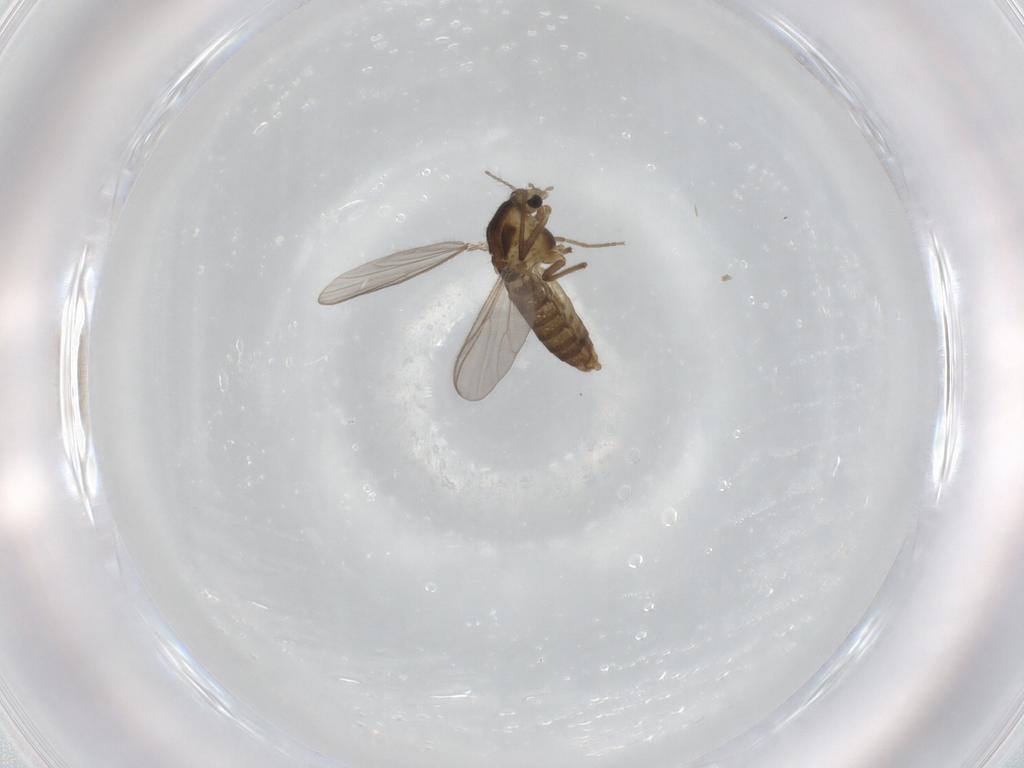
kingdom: Animalia
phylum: Arthropoda
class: Insecta
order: Diptera
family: Chironomidae
